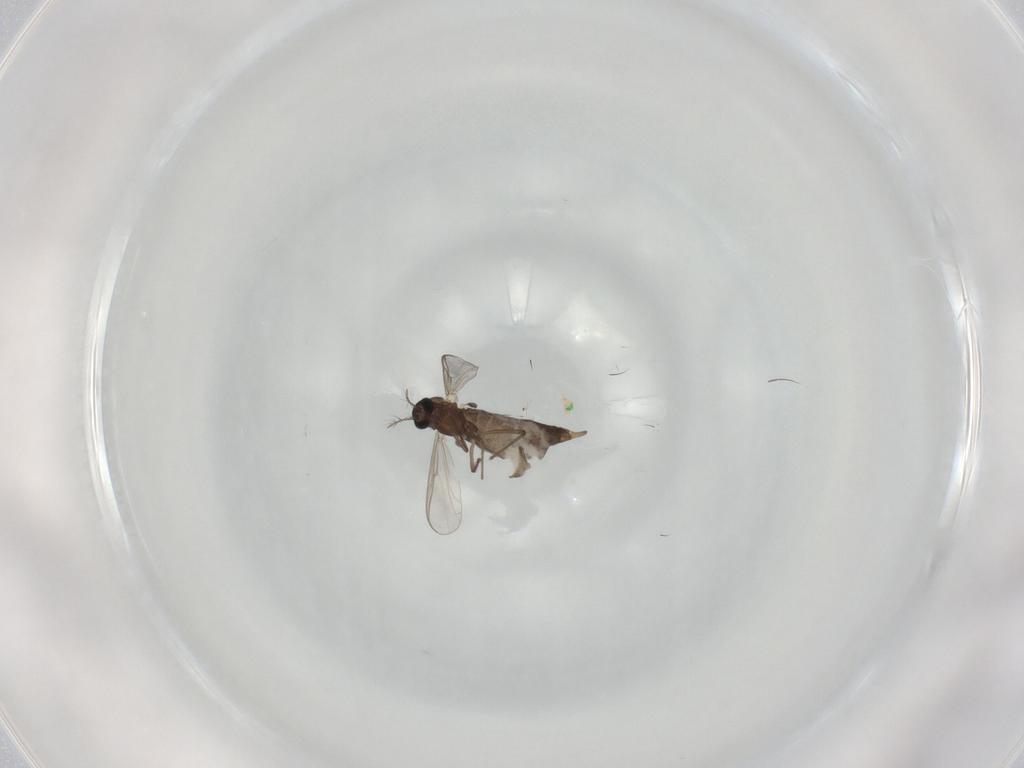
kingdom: Animalia
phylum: Arthropoda
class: Insecta
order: Diptera
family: Chironomidae
